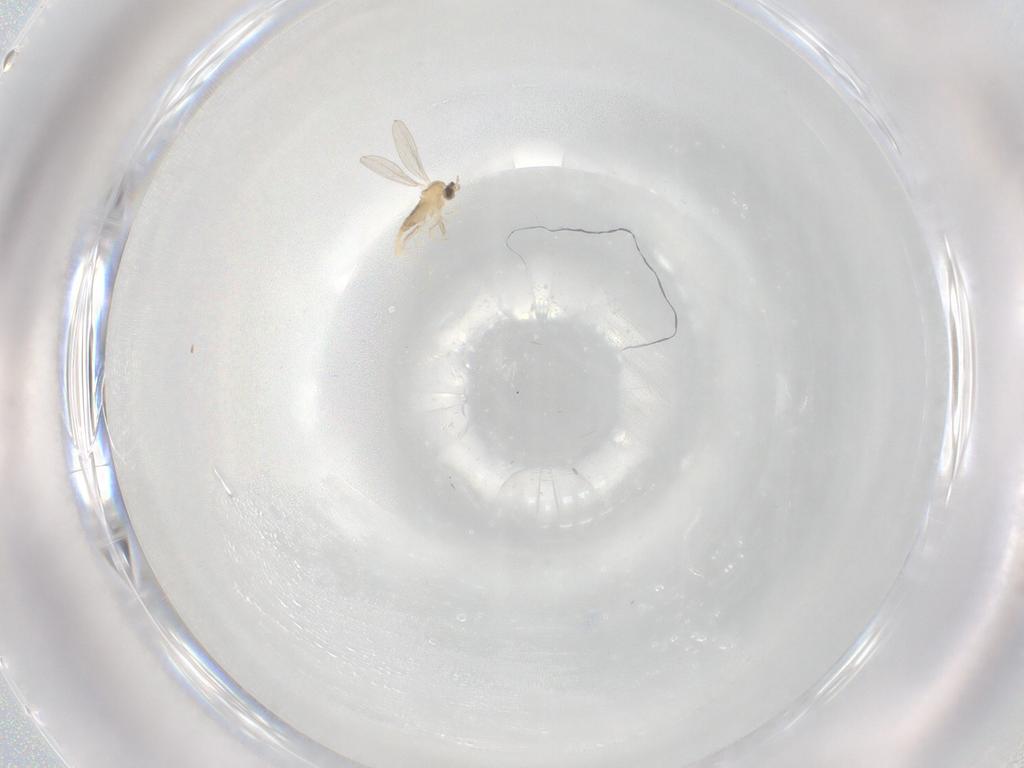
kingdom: Animalia
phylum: Arthropoda
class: Insecta
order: Diptera
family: Cecidomyiidae
